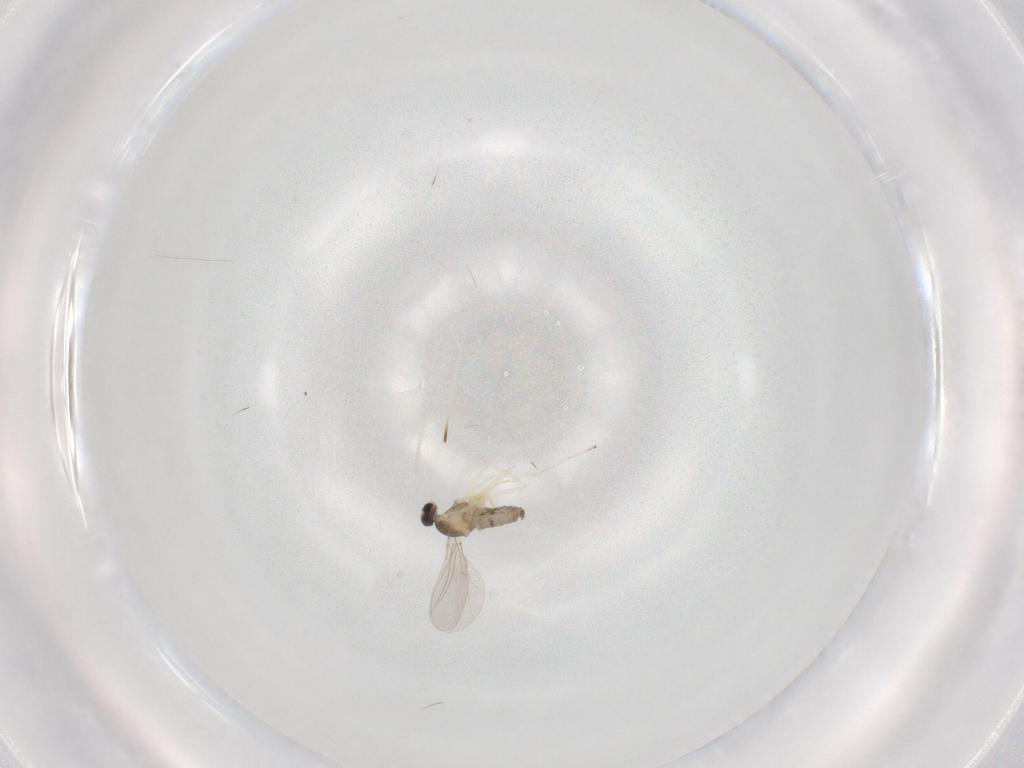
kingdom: Animalia
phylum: Arthropoda
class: Insecta
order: Diptera
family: Cecidomyiidae
